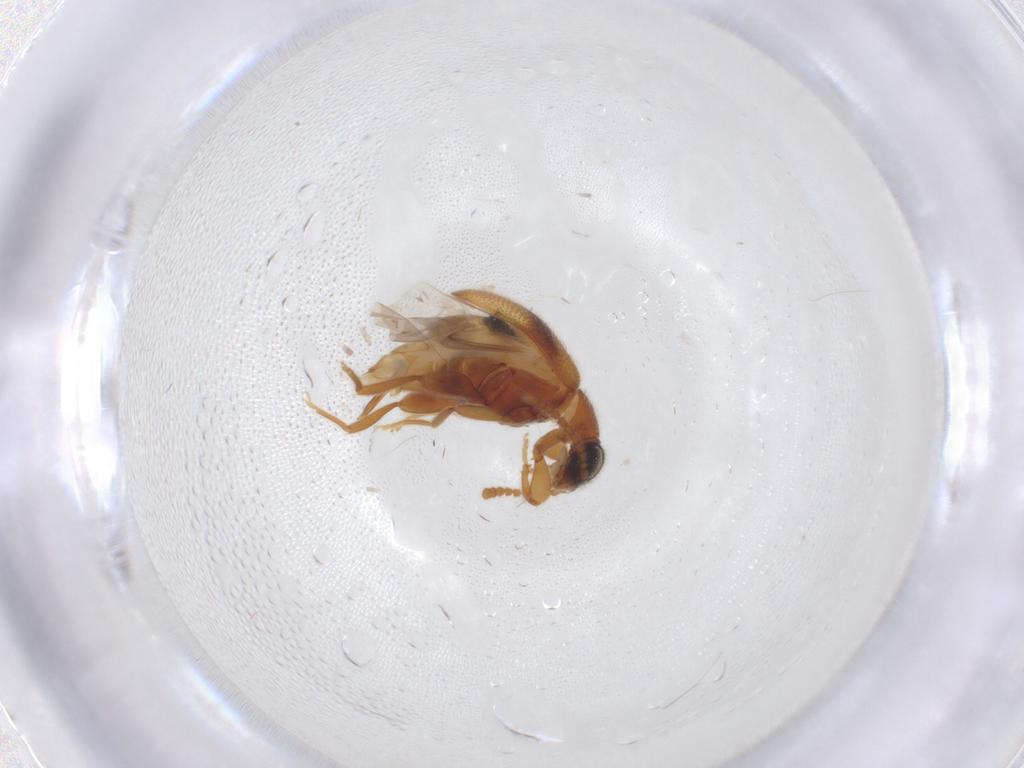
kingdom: Animalia
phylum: Arthropoda
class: Insecta
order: Coleoptera
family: Aderidae
